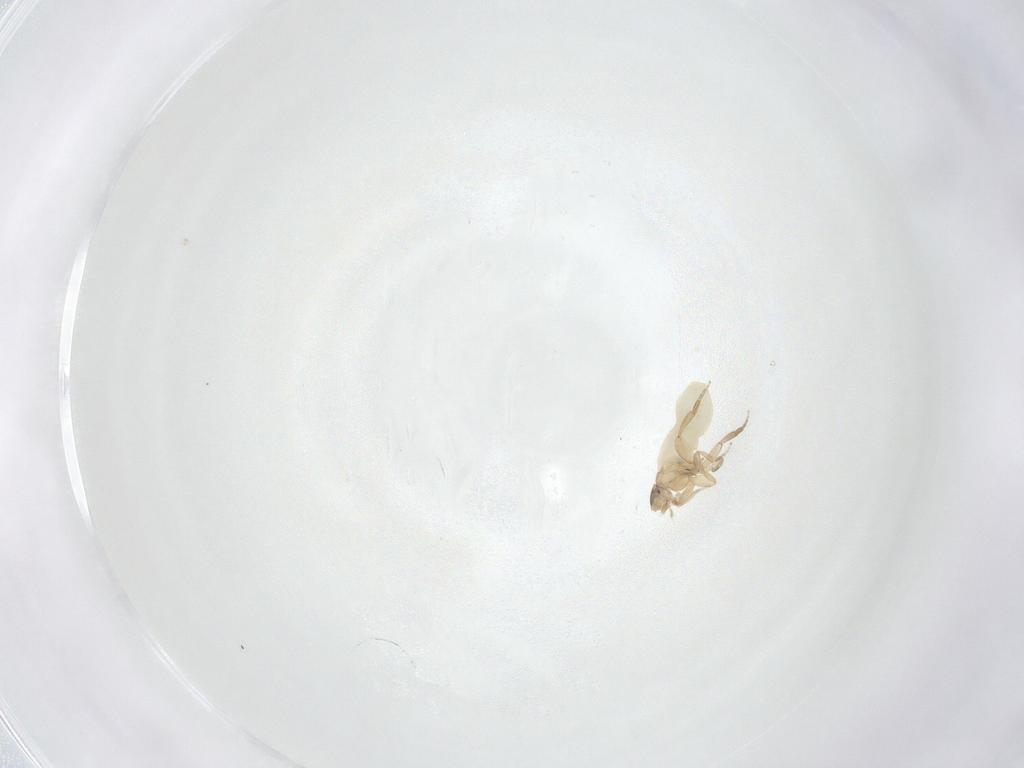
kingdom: Animalia
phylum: Arthropoda
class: Insecta
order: Diptera
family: Phoridae
